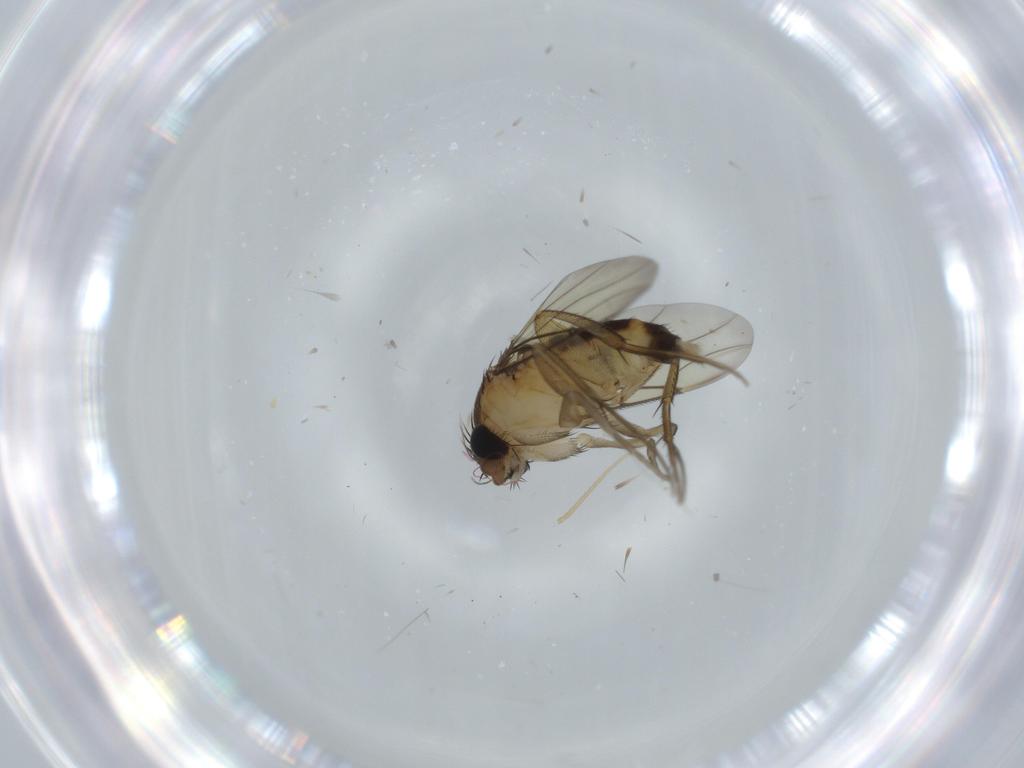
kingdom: Animalia
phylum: Arthropoda
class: Insecta
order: Diptera
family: Phoridae
